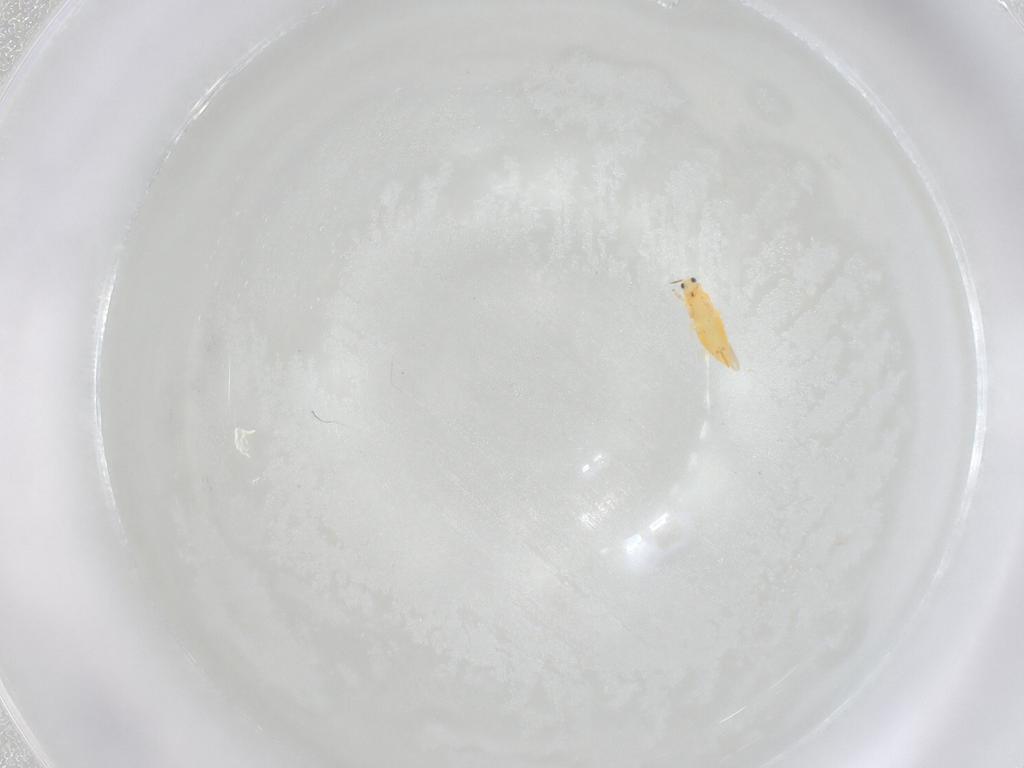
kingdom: Animalia
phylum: Arthropoda
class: Insecta
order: Thysanoptera
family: Thripidae
